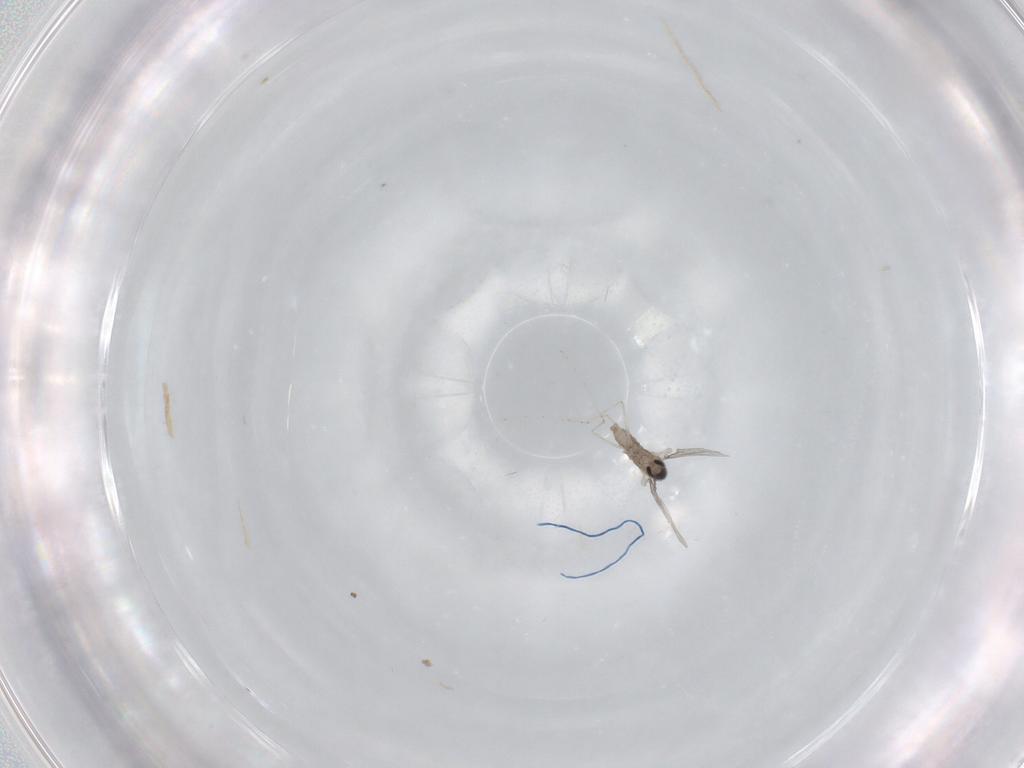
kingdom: Animalia
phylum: Arthropoda
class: Insecta
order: Diptera
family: Cecidomyiidae
